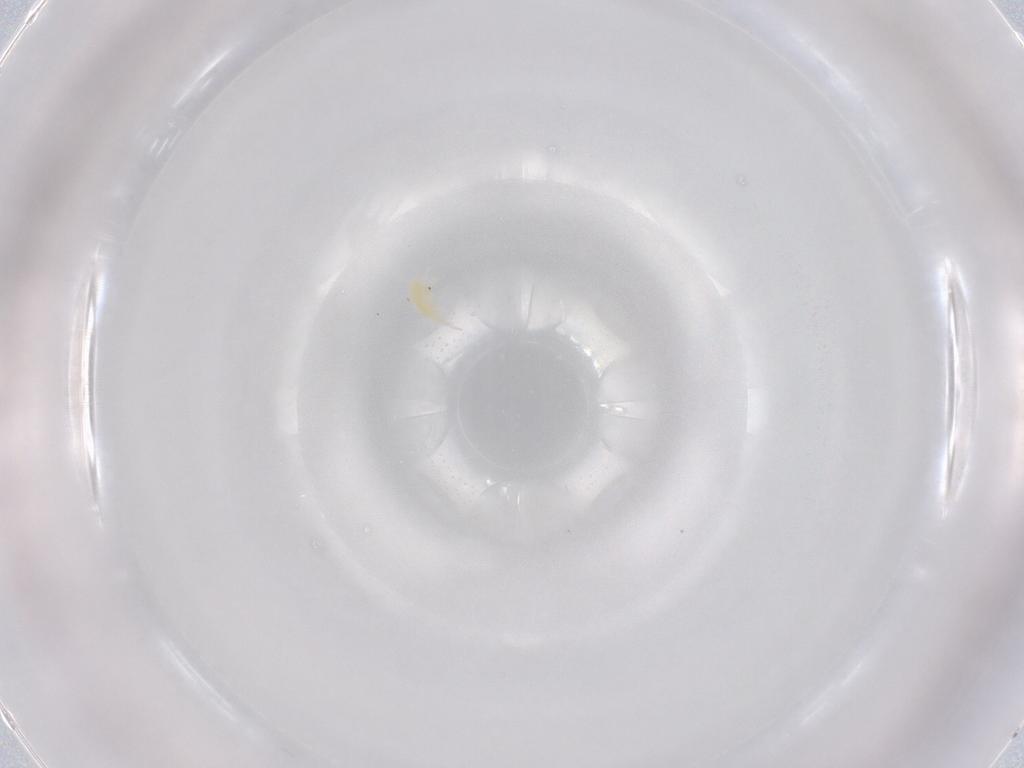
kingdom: Animalia
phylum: Arthropoda
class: Arachnida
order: Trombidiformes
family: Stigmaeidae
